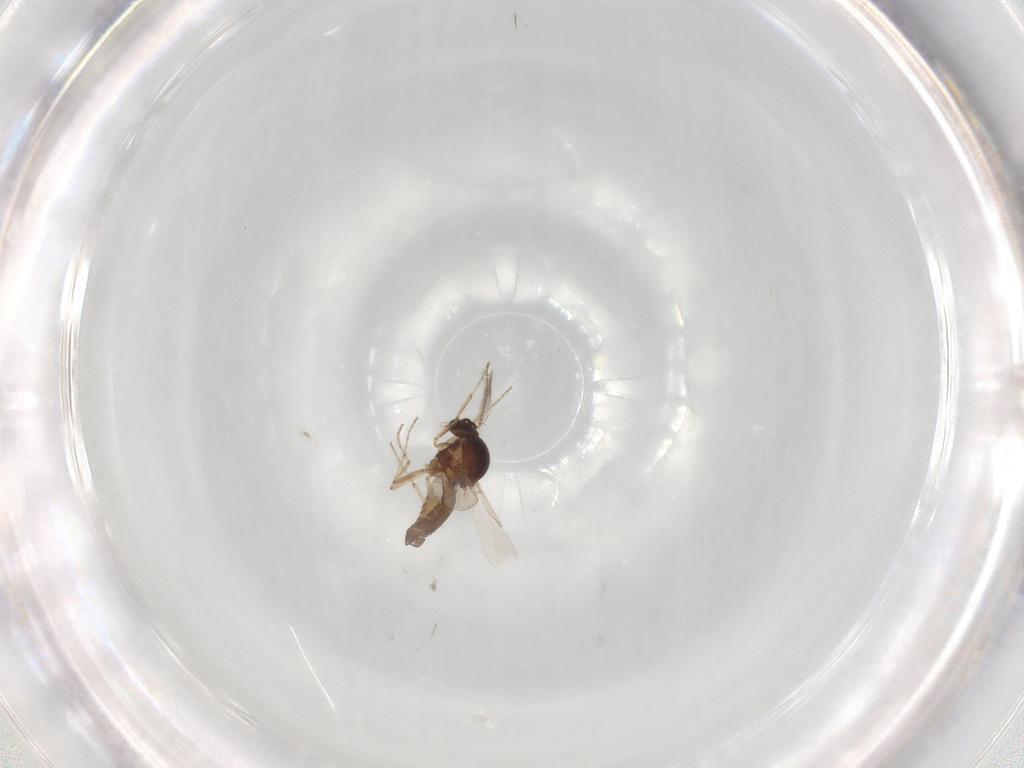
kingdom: Animalia
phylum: Arthropoda
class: Insecta
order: Diptera
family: Ceratopogonidae
